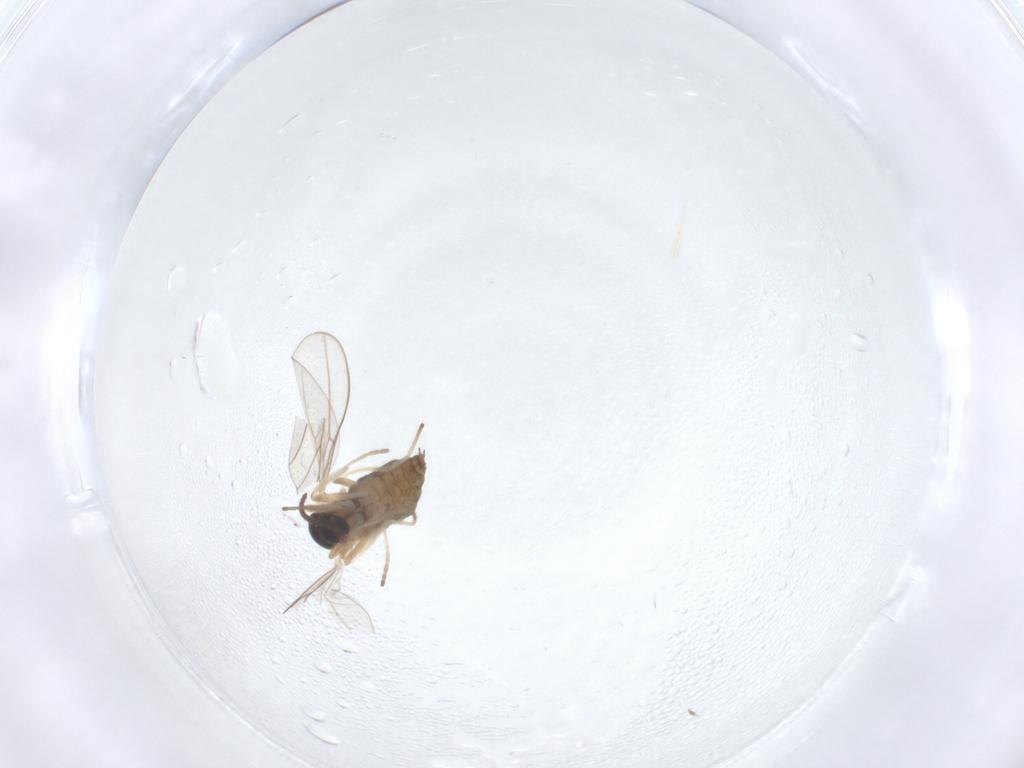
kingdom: Animalia
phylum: Arthropoda
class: Insecta
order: Diptera
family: Cecidomyiidae
